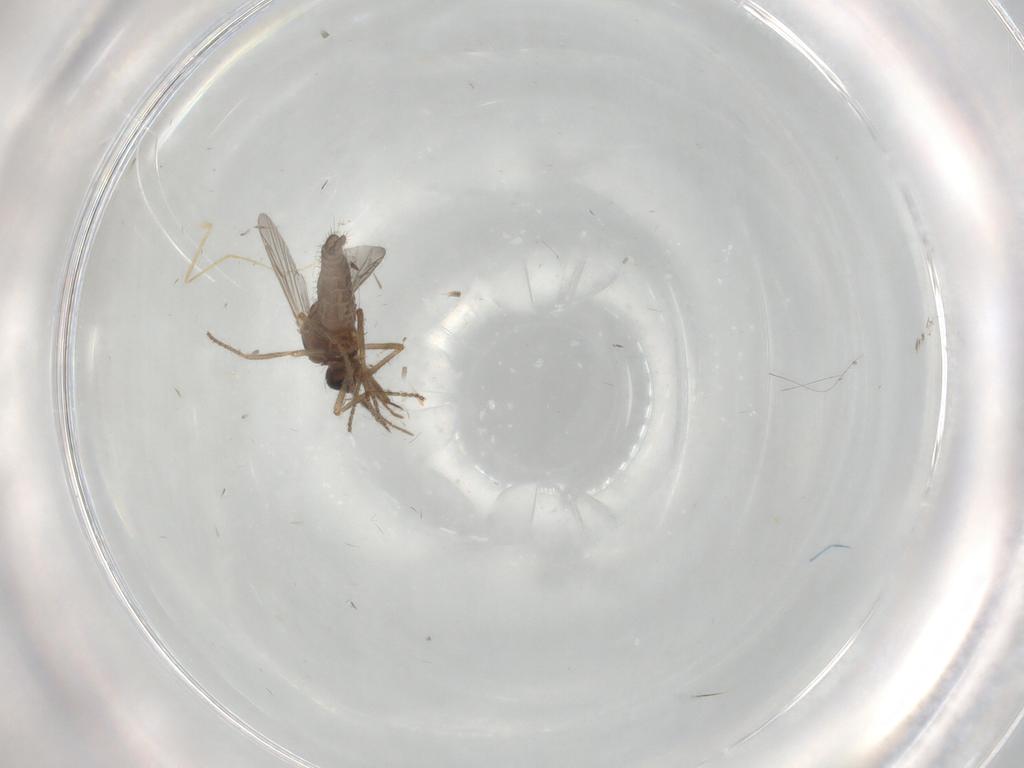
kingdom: Animalia
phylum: Arthropoda
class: Insecta
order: Diptera
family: Ceratopogonidae
